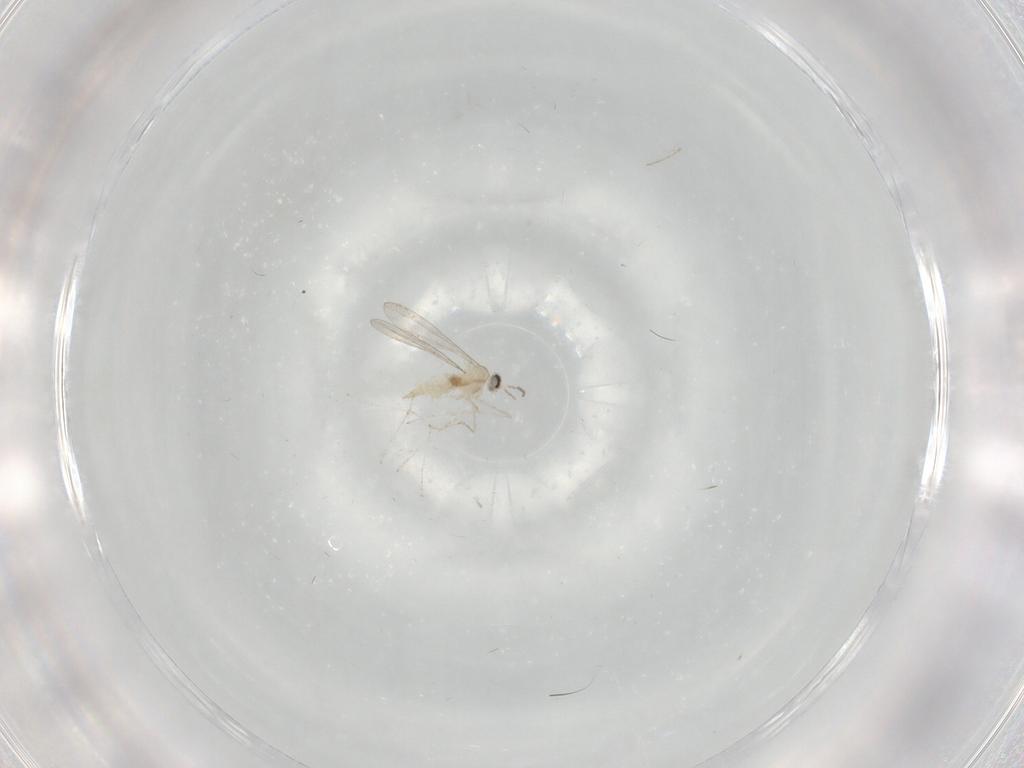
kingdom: Animalia
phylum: Arthropoda
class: Insecta
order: Diptera
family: Cecidomyiidae
